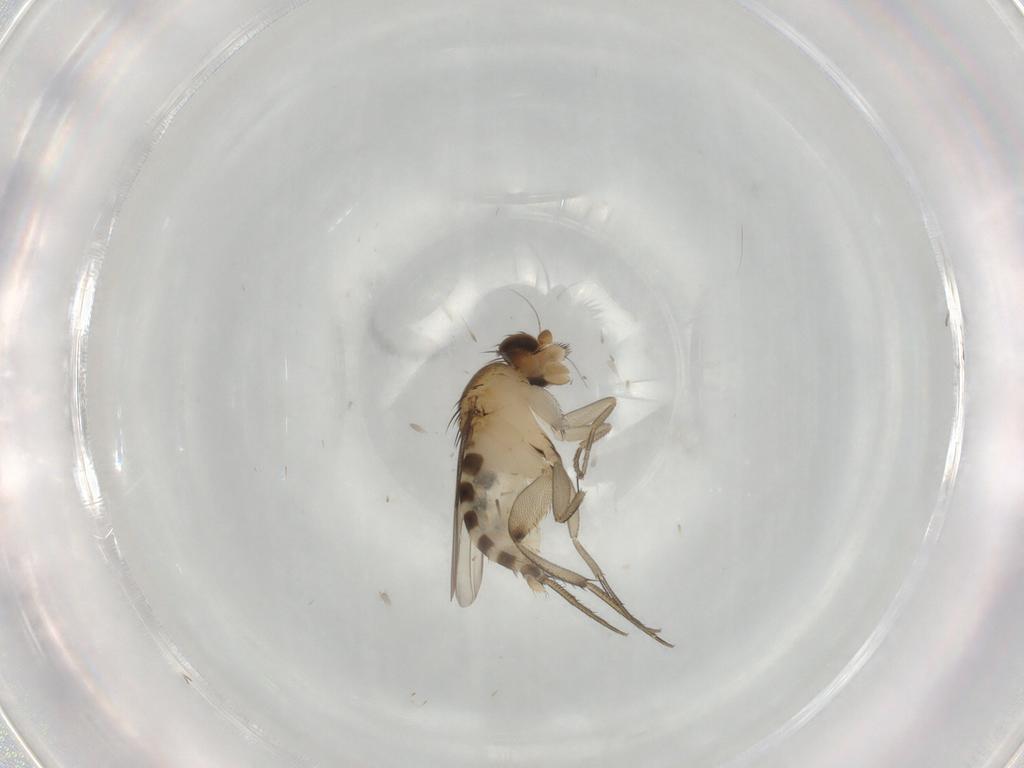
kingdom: Animalia
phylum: Arthropoda
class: Insecta
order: Diptera
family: Phoridae
